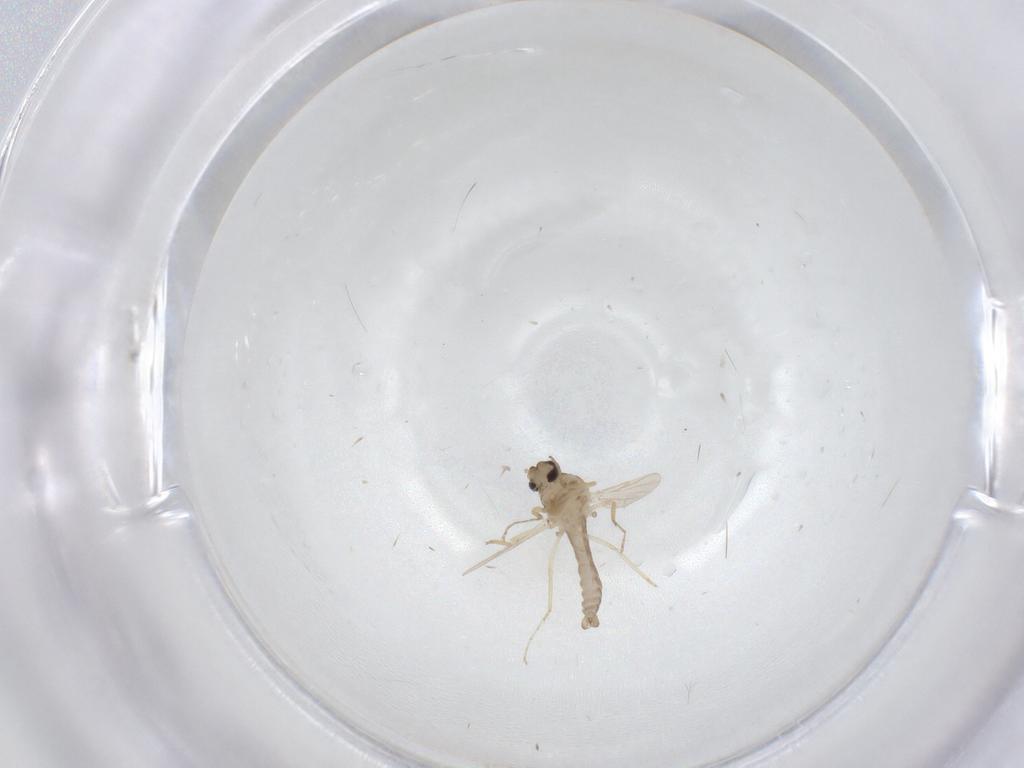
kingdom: Animalia
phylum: Arthropoda
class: Insecta
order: Diptera
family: Ceratopogonidae
